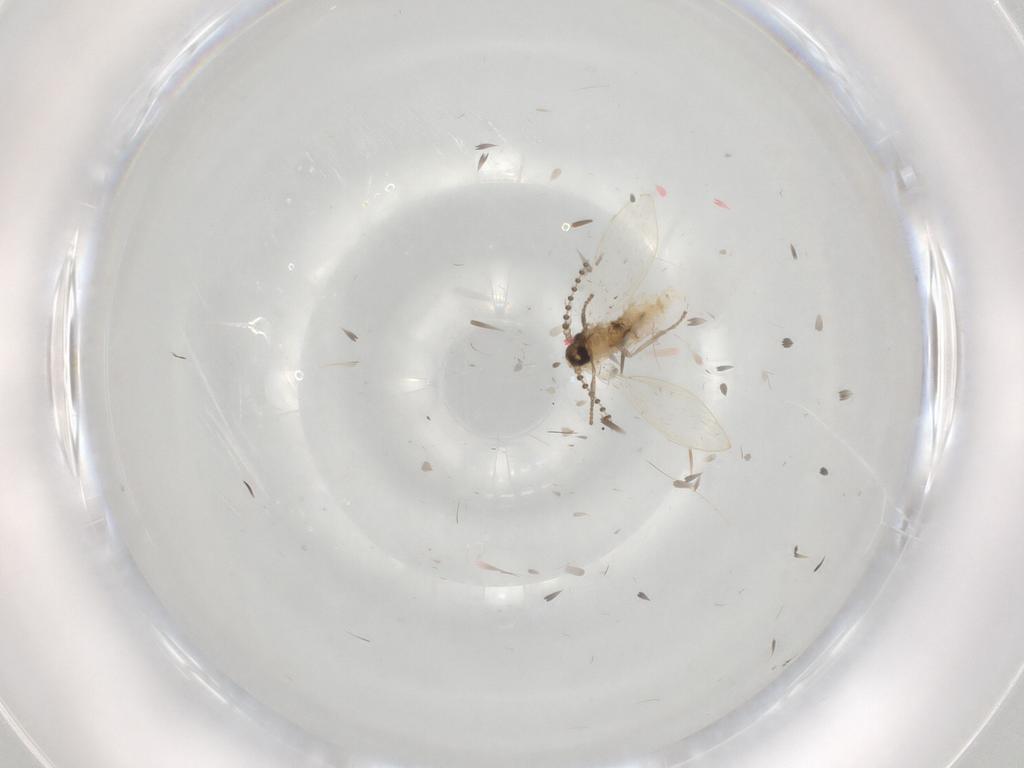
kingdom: Animalia
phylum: Arthropoda
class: Insecta
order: Diptera
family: Psychodidae
